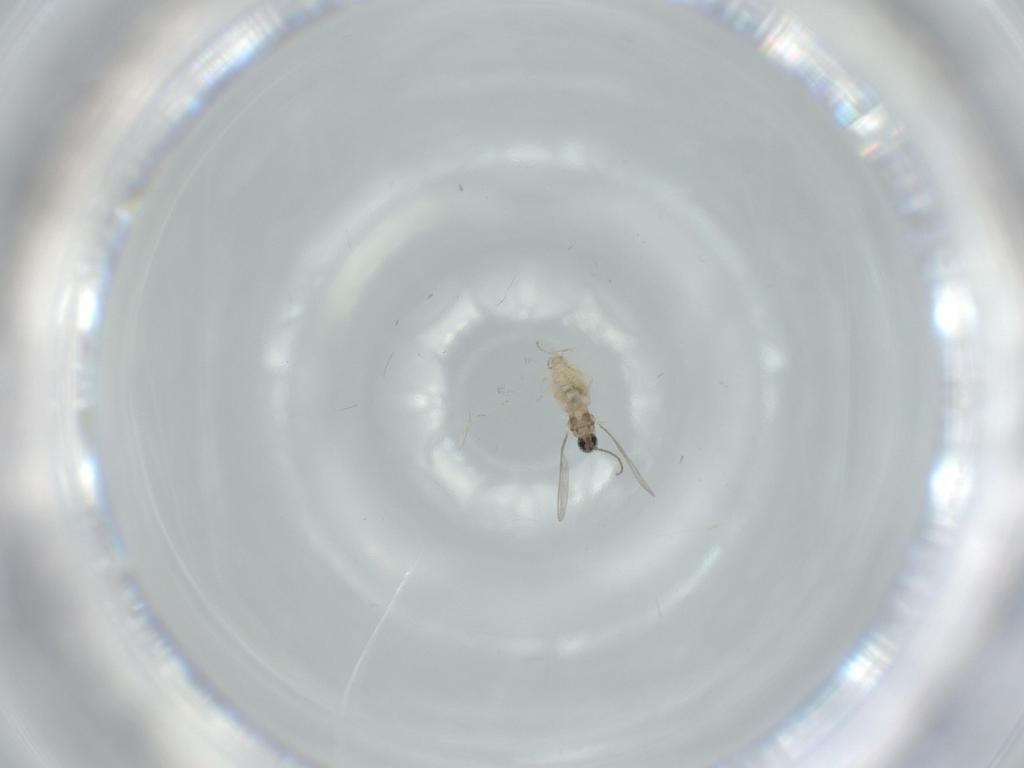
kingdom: Animalia
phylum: Arthropoda
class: Insecta
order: Diptera
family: Cecidomyiidae
